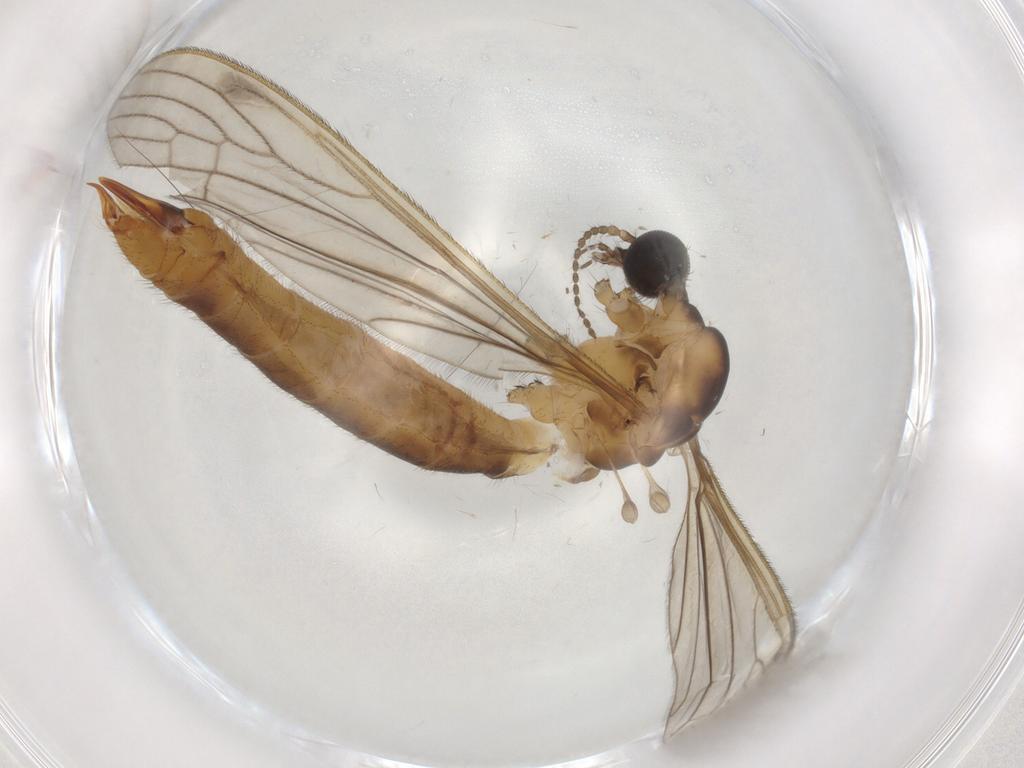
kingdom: Animalia
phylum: Arthropoda
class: Insecta
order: Diptera
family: Chironomidae
